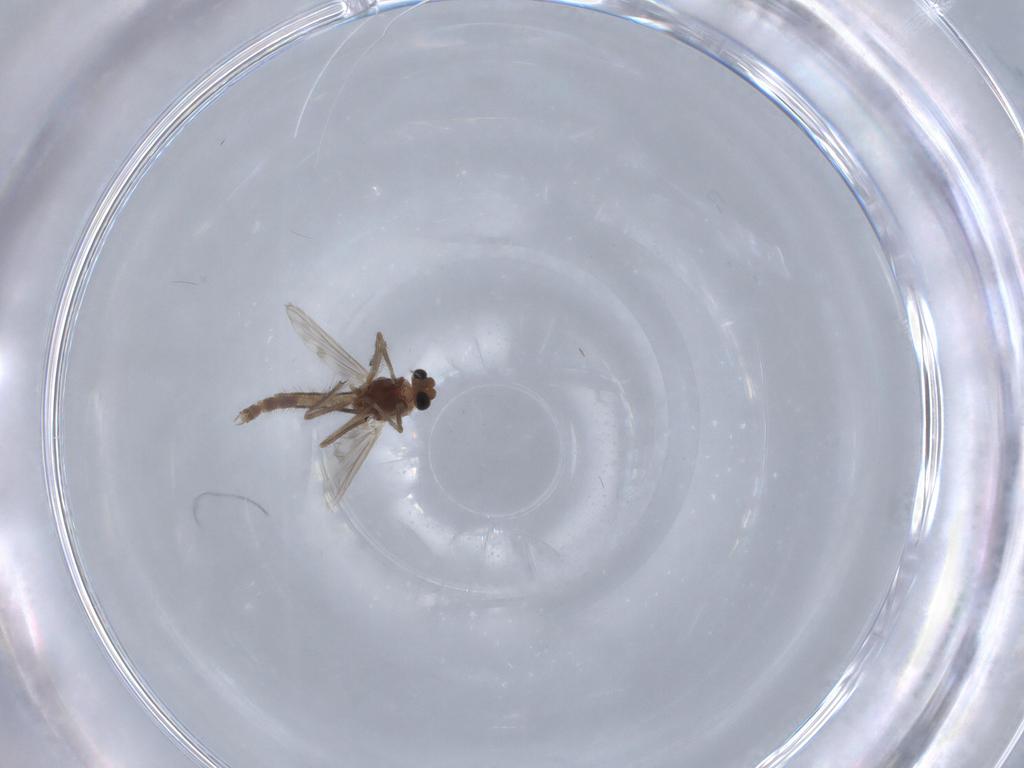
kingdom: Animalia
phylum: Arthropoda
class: Insecta
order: Diptera
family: Chironomidae
